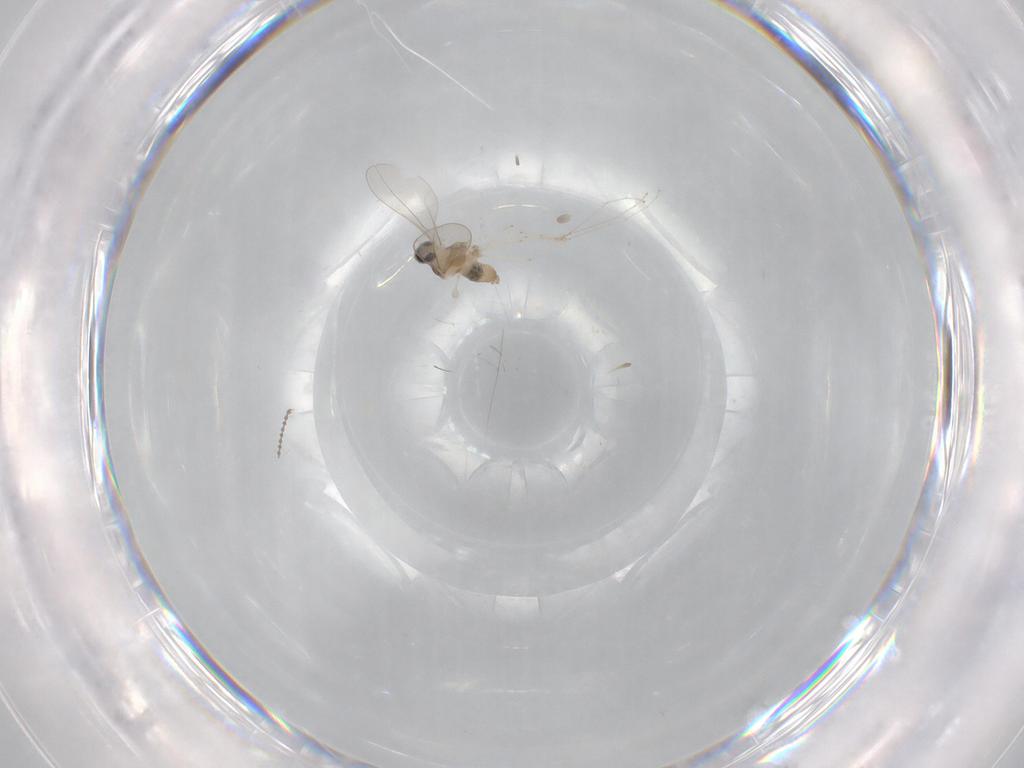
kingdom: Animalia
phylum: Arthropoda
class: Insecta
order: Diptera
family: Cecidomyiidae
